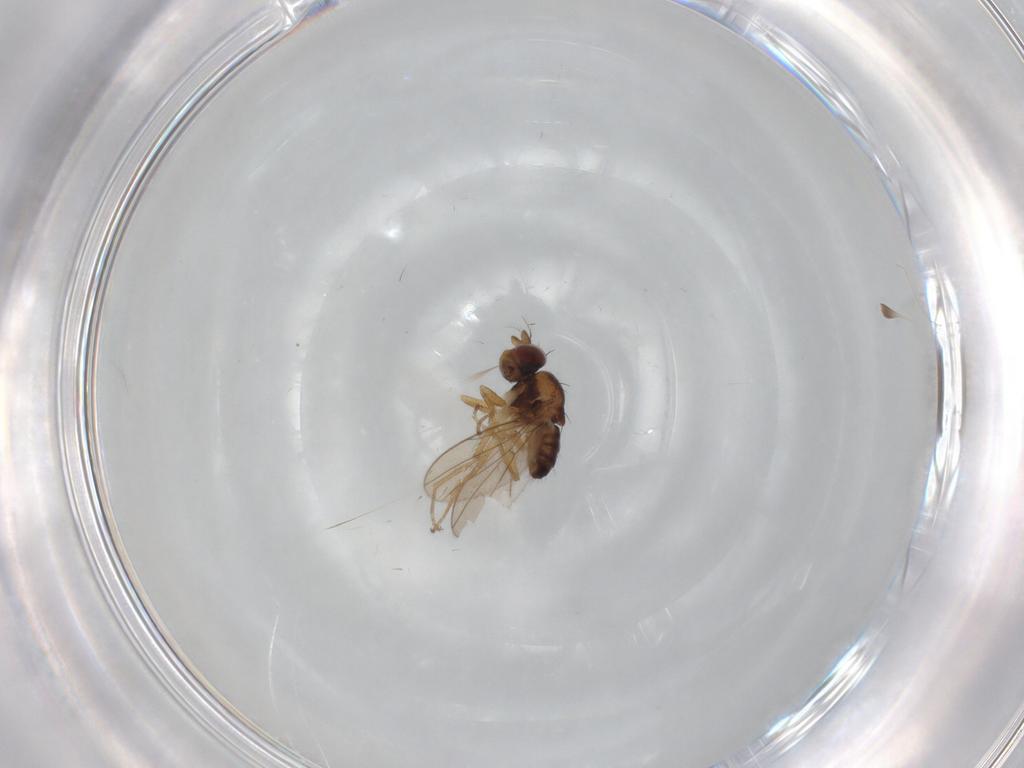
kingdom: Animalia
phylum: Arthropoda
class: Insecta
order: Diptera
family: Ephydridae
